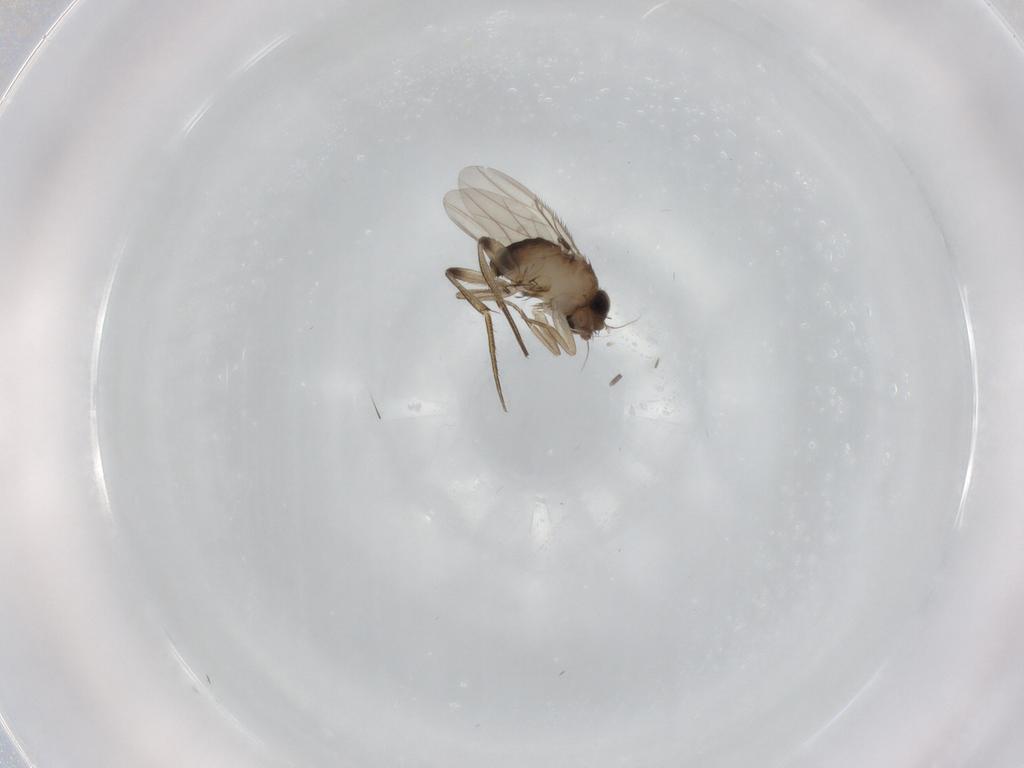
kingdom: Animalia
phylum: Arthropoda
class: Insecta
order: Diptera
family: Phoridae
